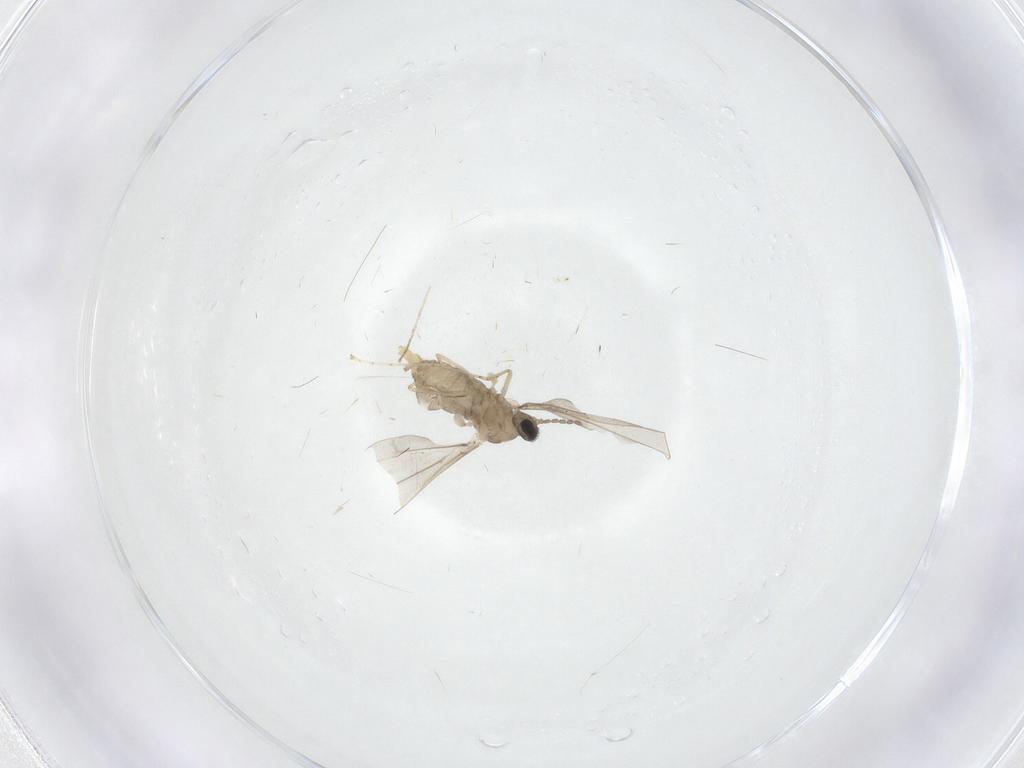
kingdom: Animalia
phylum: Arthropoda
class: Insecta
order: Diptera
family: Cecidomyiidae
